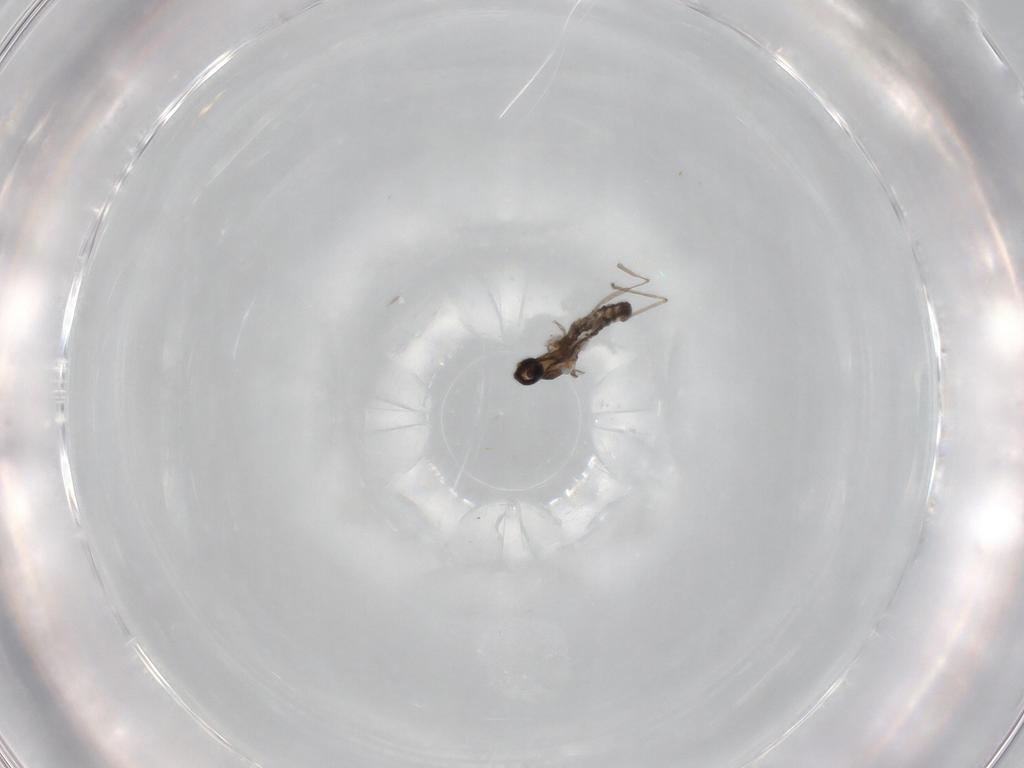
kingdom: Animalia
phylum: Arthropoda
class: Insecta
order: Diptera
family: Cecidomyiidae
